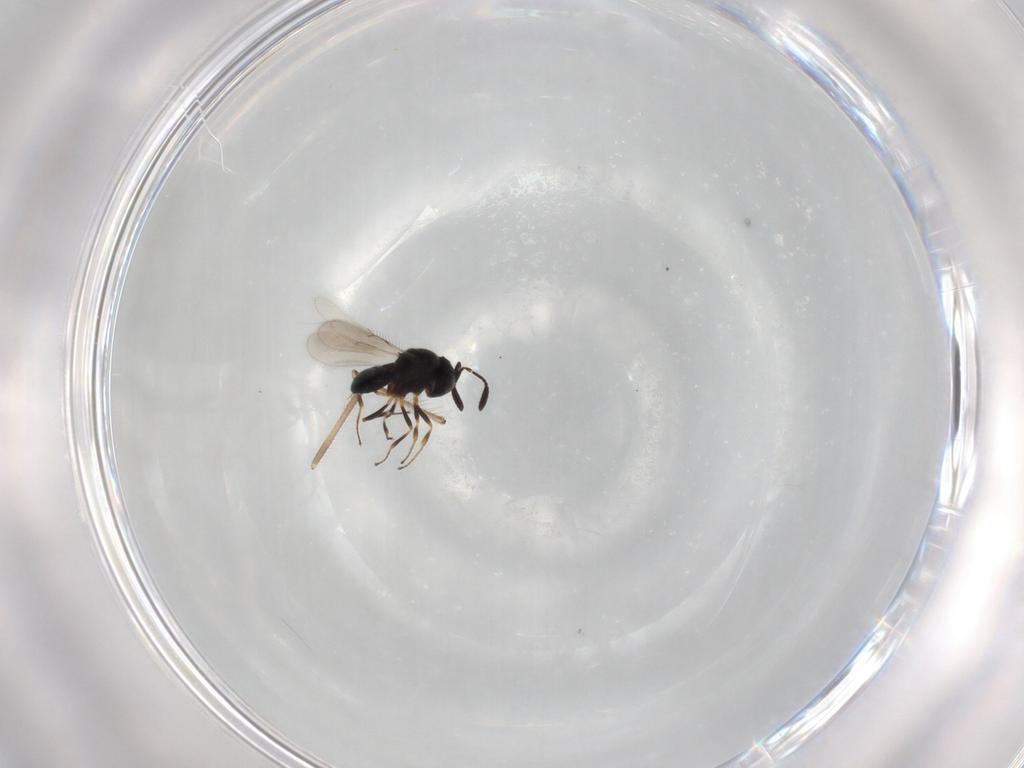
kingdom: Animalia
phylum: Arthropoda
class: Insecta
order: Hymenoptera
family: Scelionidae
